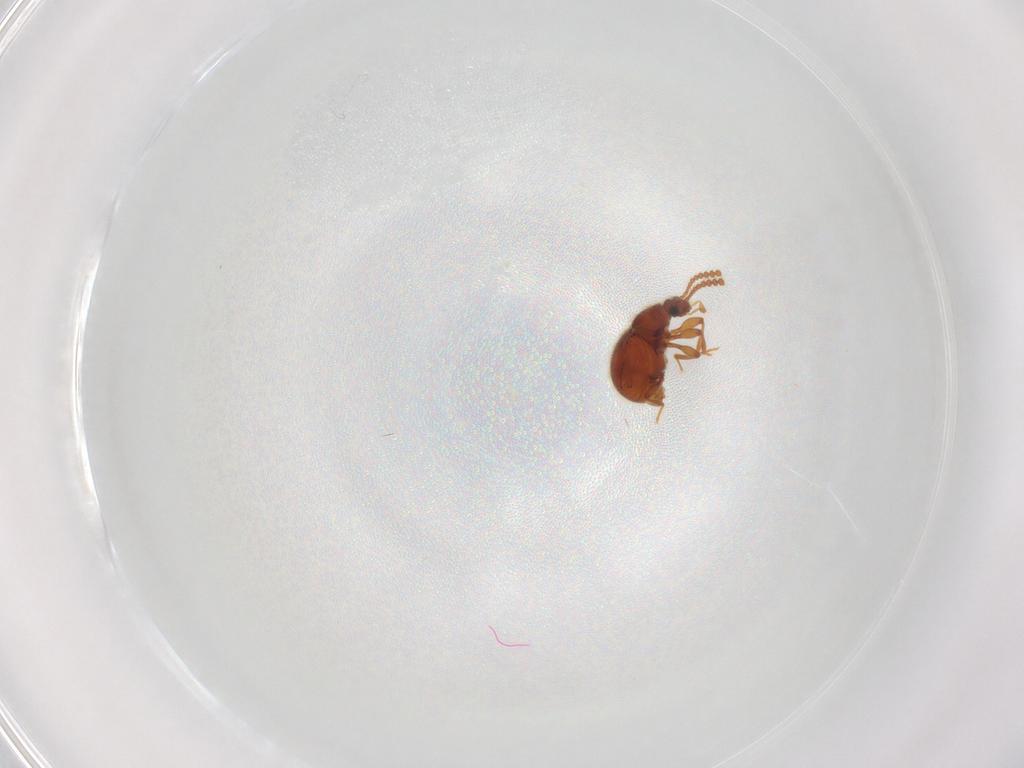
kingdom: Animalia
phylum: Arthropoda
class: Insecta
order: Coleoptera
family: Staphylinidae
